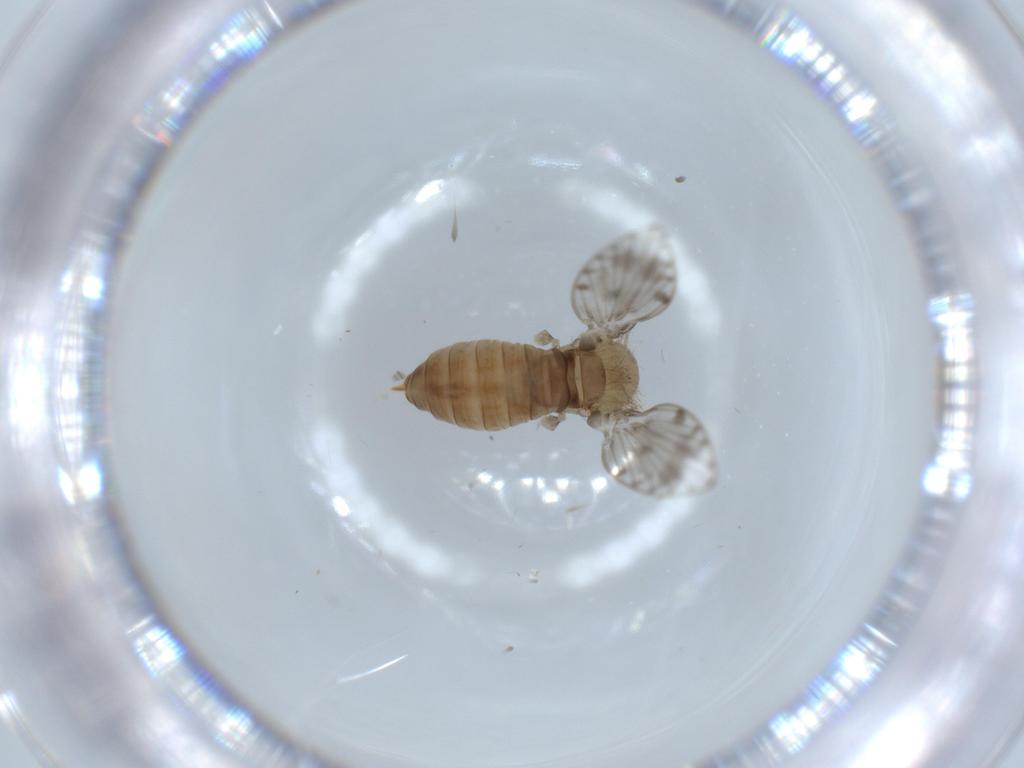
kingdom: Animalia
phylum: Arthropoda
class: Insecta
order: Diptera
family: Psychodidae
